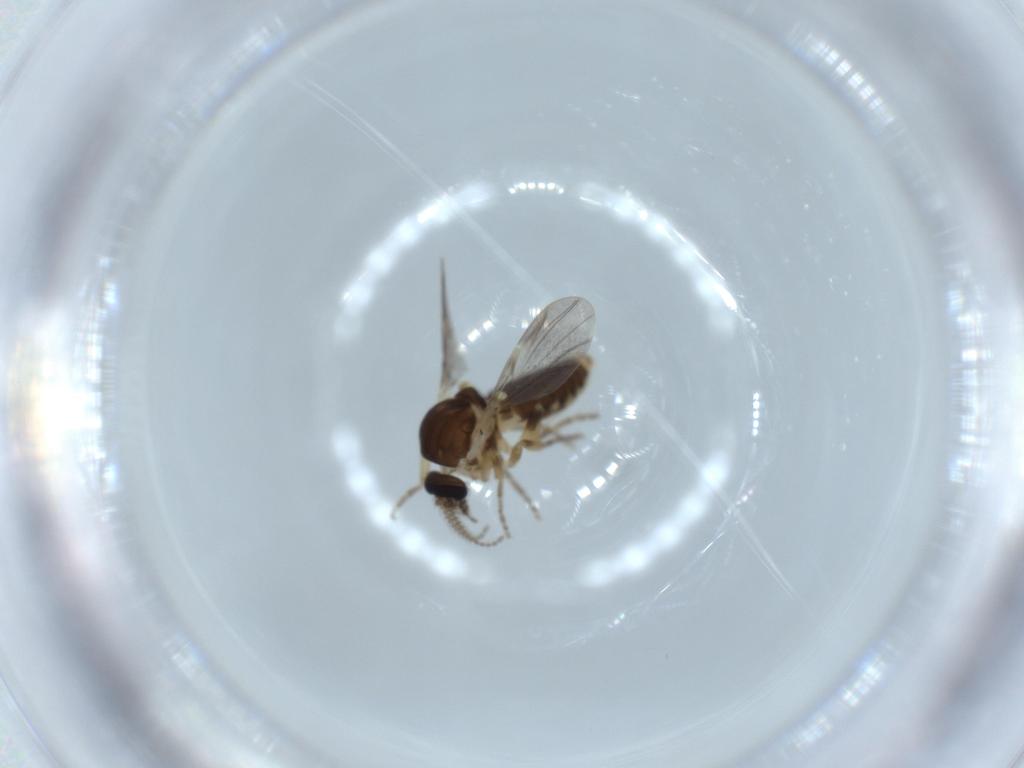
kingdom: Animalia
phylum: Arthropoda
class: Insecta
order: Diptera
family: Ceratopogonidae
